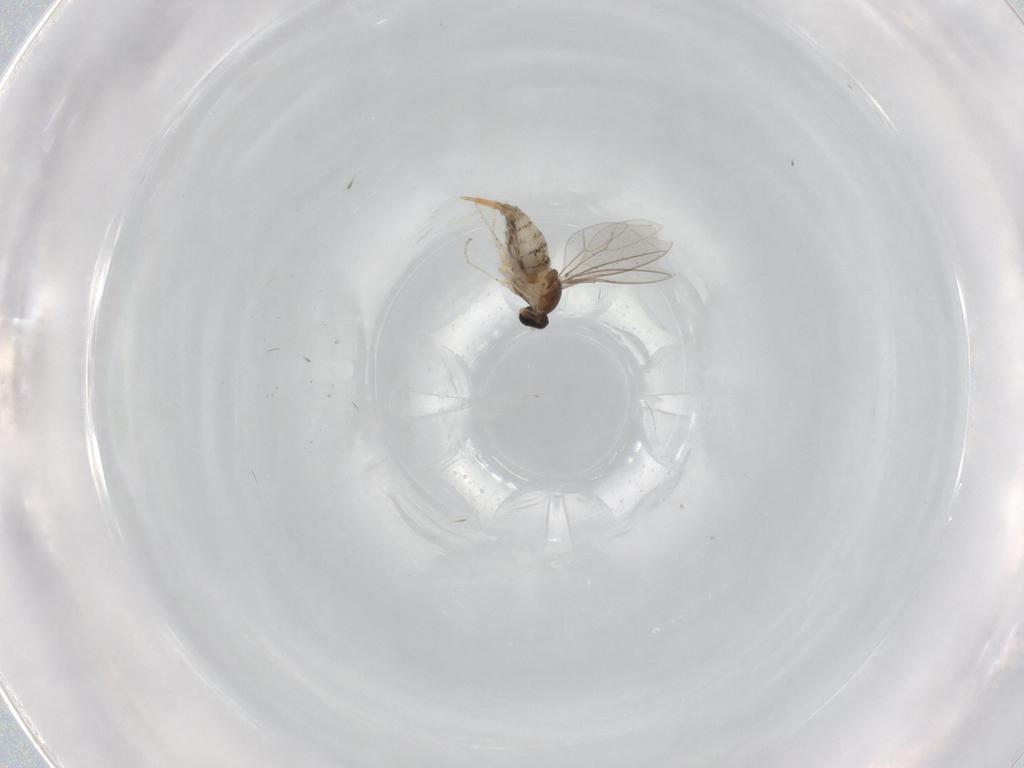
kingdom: Animalia
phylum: Arthropoda
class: Insecta
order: Diptera
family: Cecidomyiidae
